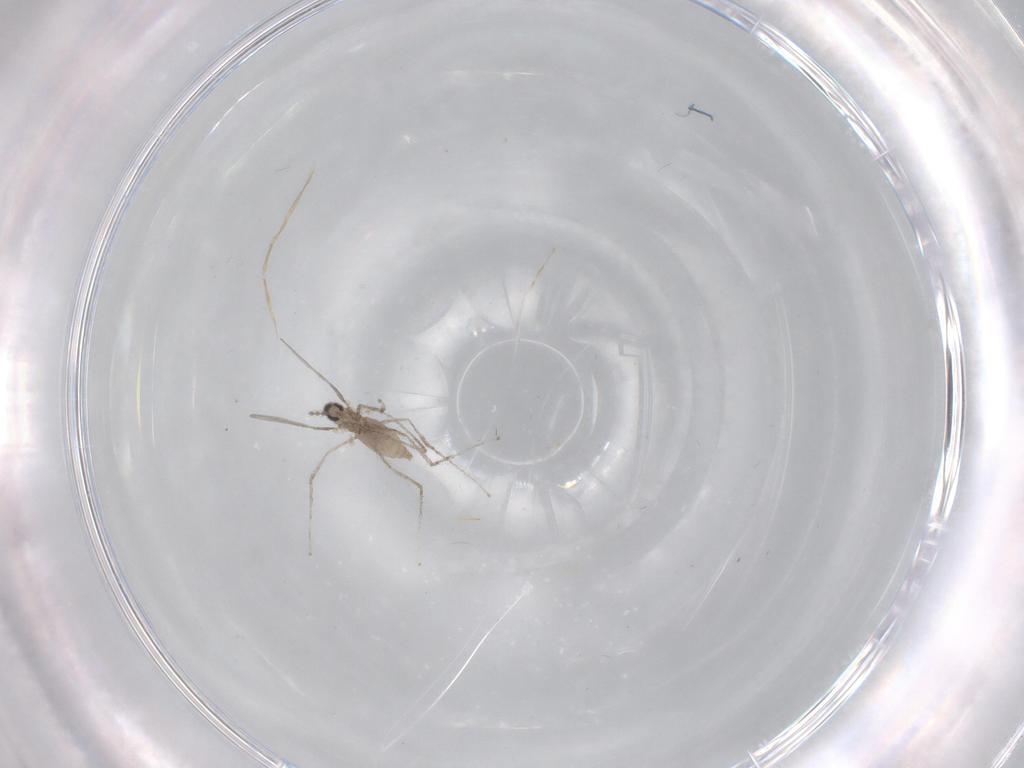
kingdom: Animalia
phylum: Arthropoda
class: Insecta
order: Diptera
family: Cecidomyiidae
